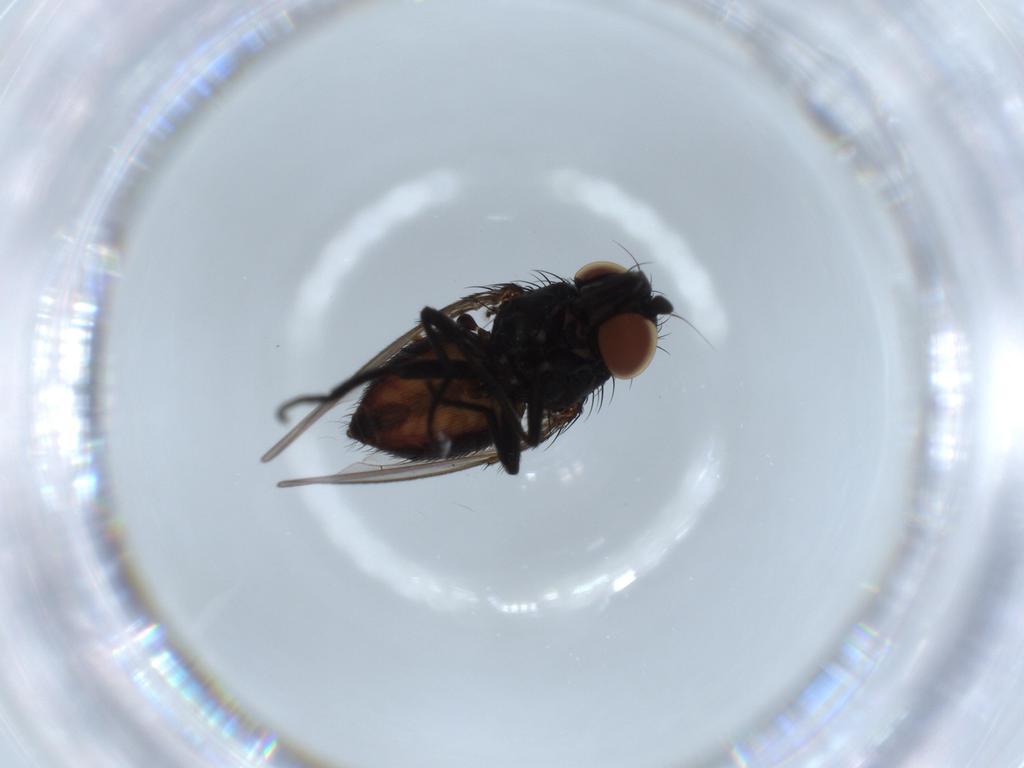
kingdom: Animalia
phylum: Arthropoda
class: Insecta
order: Diptera
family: Milichiidae
